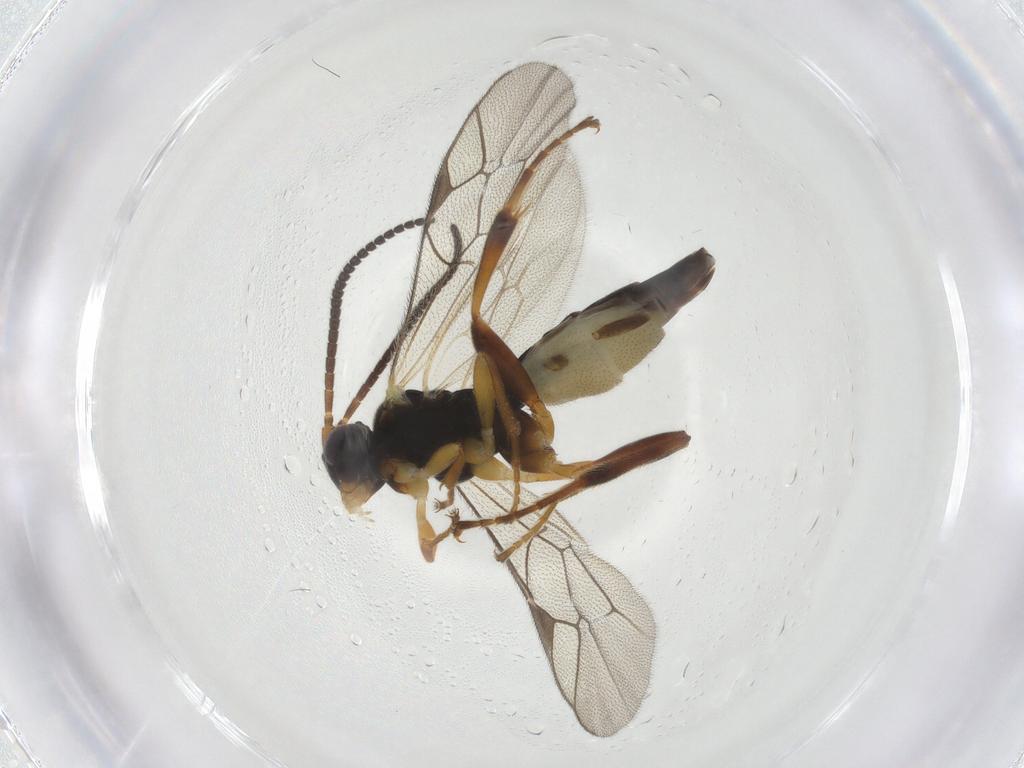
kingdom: Animalia
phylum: Arthropoda
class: Insecta
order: Hymenoptera
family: Ichneumonidae
